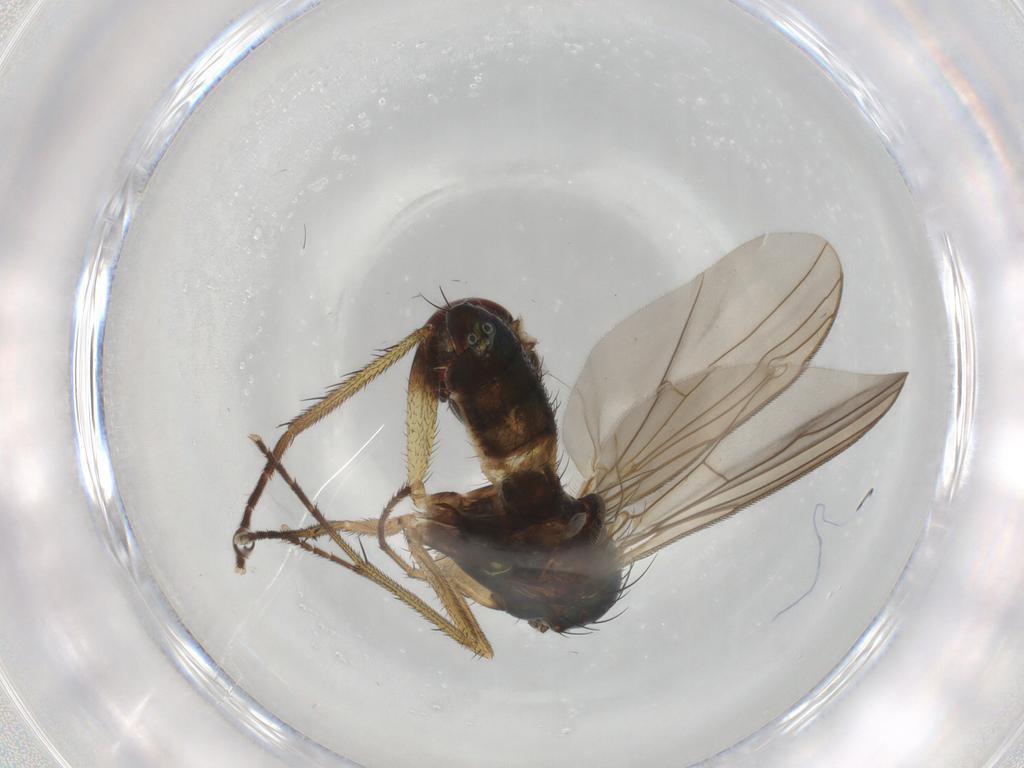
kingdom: Animalia
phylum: Arthropoda
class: Insecta
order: Diptera
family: Dolichopodidae
